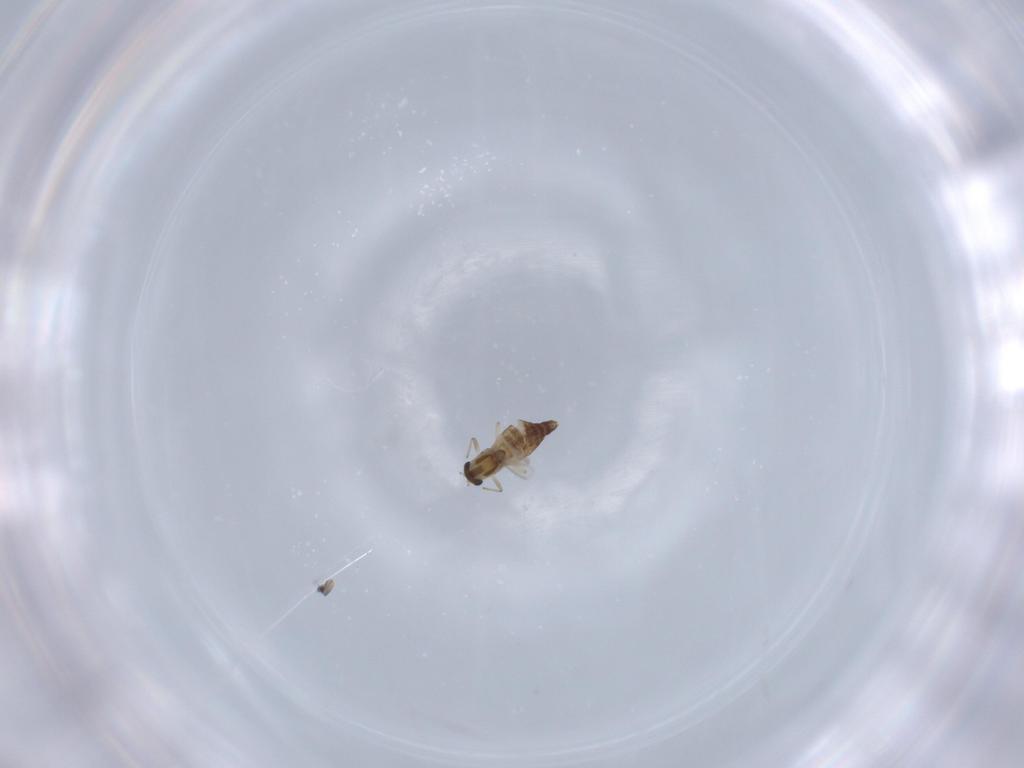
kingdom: Animalia
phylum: Arthropoda
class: Insecta
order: Diptera
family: Chironomidae
